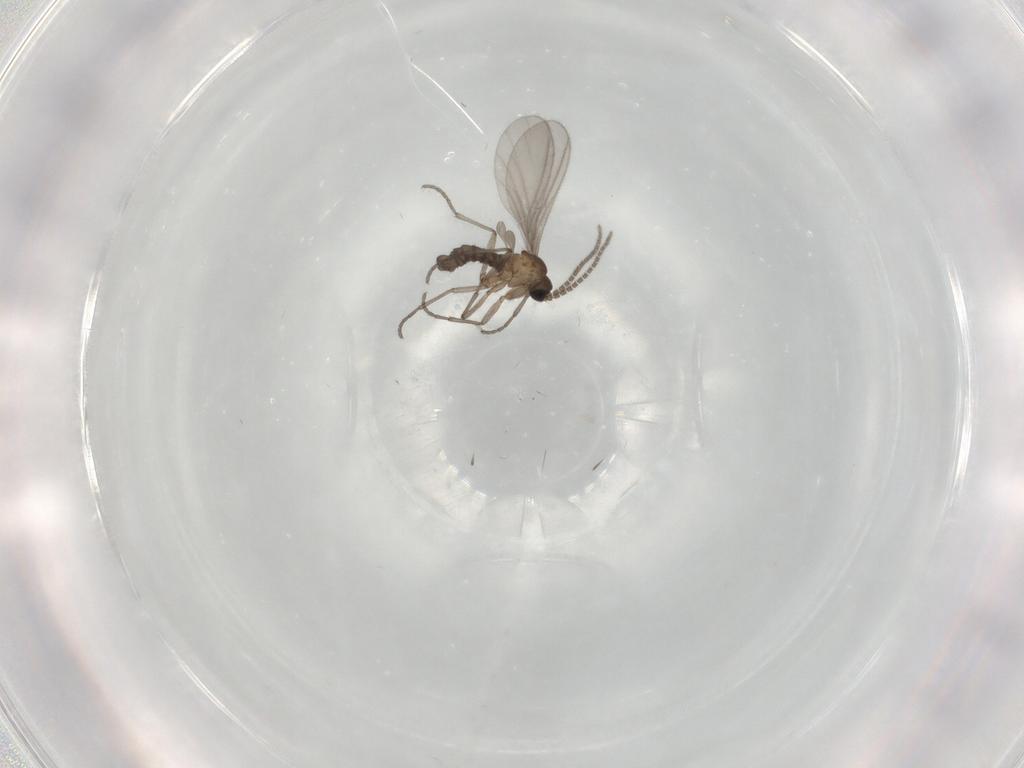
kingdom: Animalia
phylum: Arthropoda
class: Insecta
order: Diptera
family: Sciaridae
